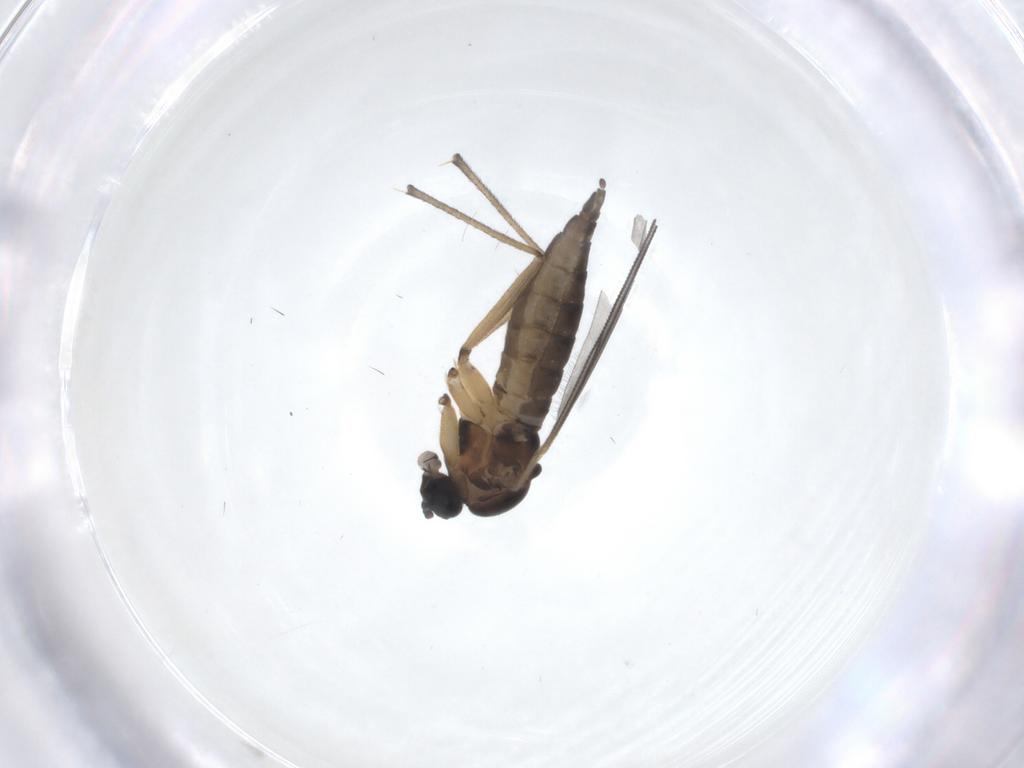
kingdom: Animalia
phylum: Arthropoda
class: Insecta
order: Diptera
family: Sciaridae
